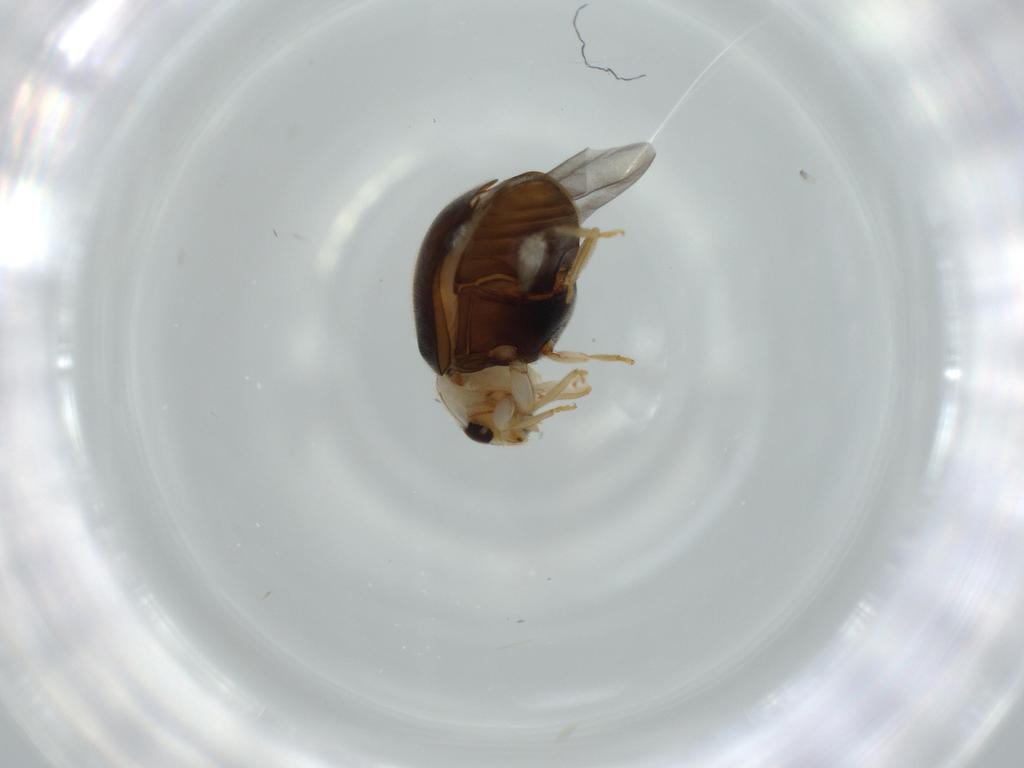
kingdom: Animalia
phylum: Arthropoda
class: Insecta
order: Coleoptera
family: Coccinellidae
